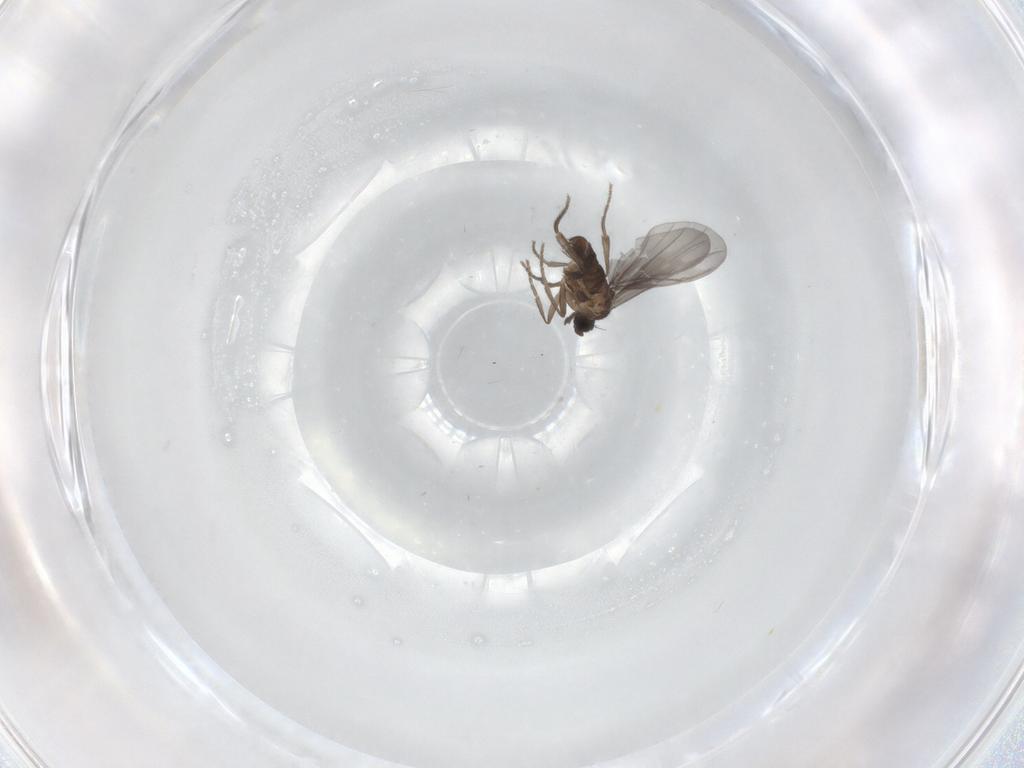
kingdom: Animalia
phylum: Arthropoda
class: Insecta
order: Diptera
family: Phoridae
